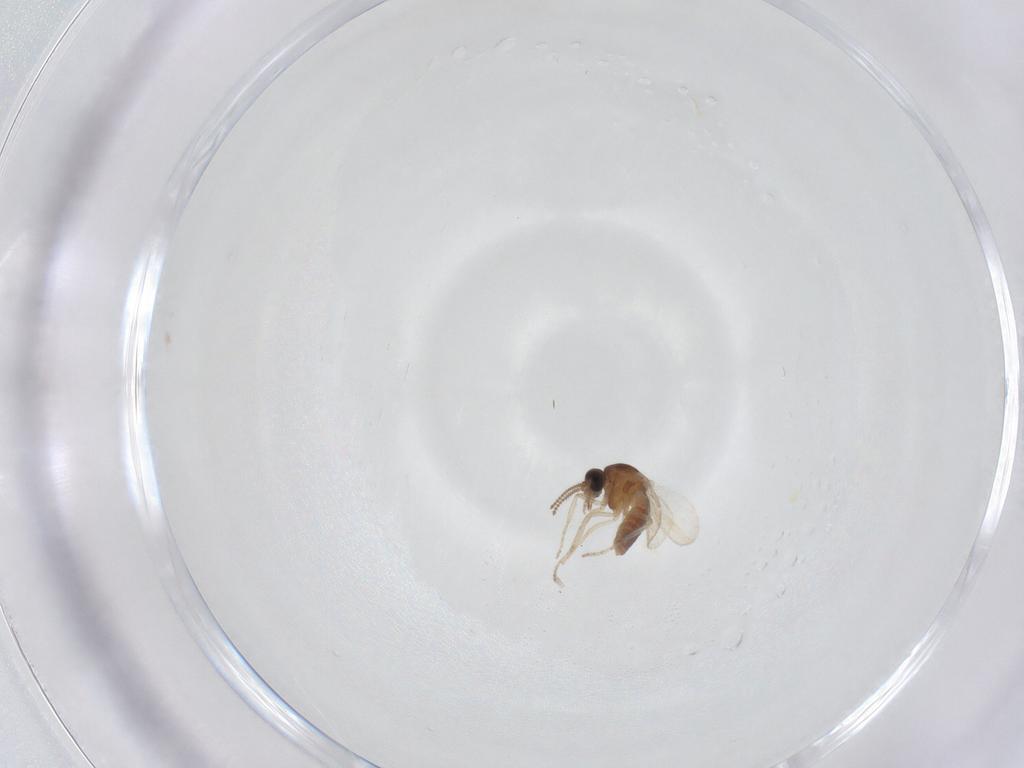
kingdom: Animalia
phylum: Arthropoda
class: Insecta
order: Diptera
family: Ceratopogonidae
